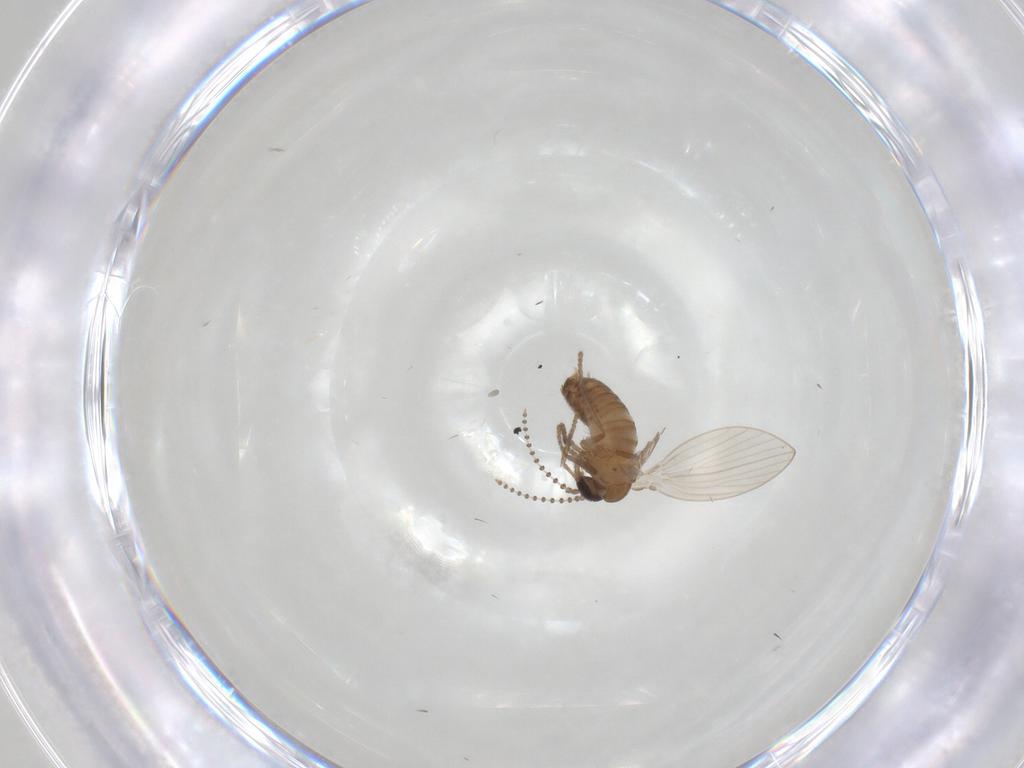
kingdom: Animalia
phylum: Arthropoda
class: Insecta
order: Diptera
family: Psychodidae
